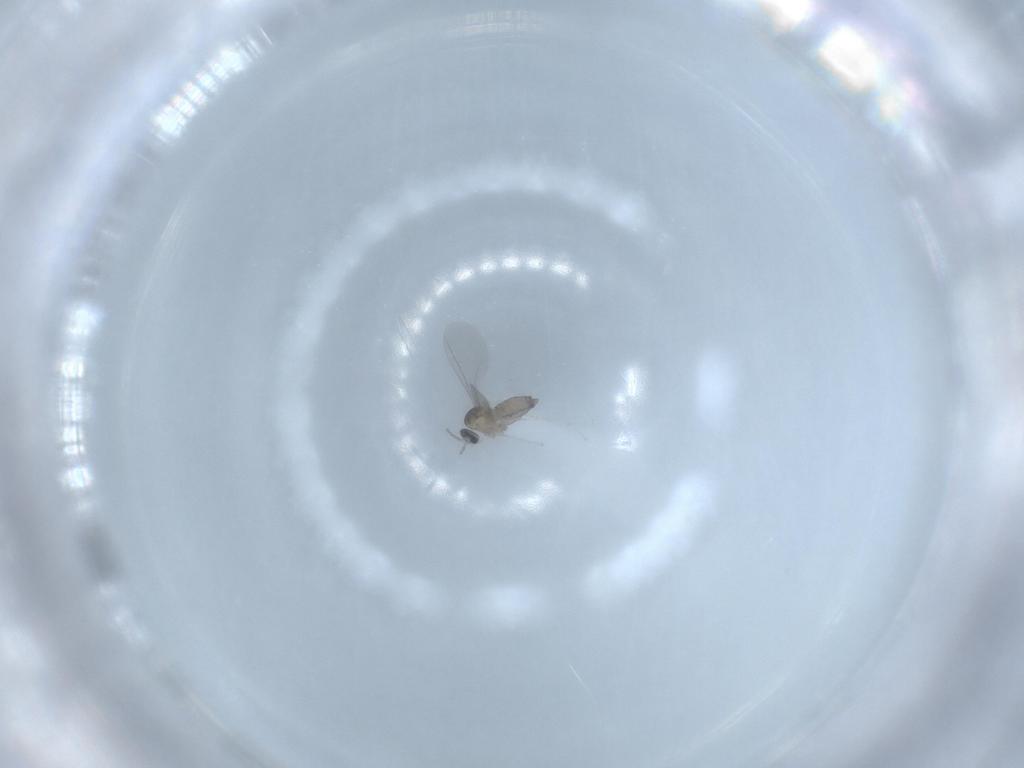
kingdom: Animalia
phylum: Arthropoda
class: Insecta
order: Diptera
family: Cecidomyiidae
